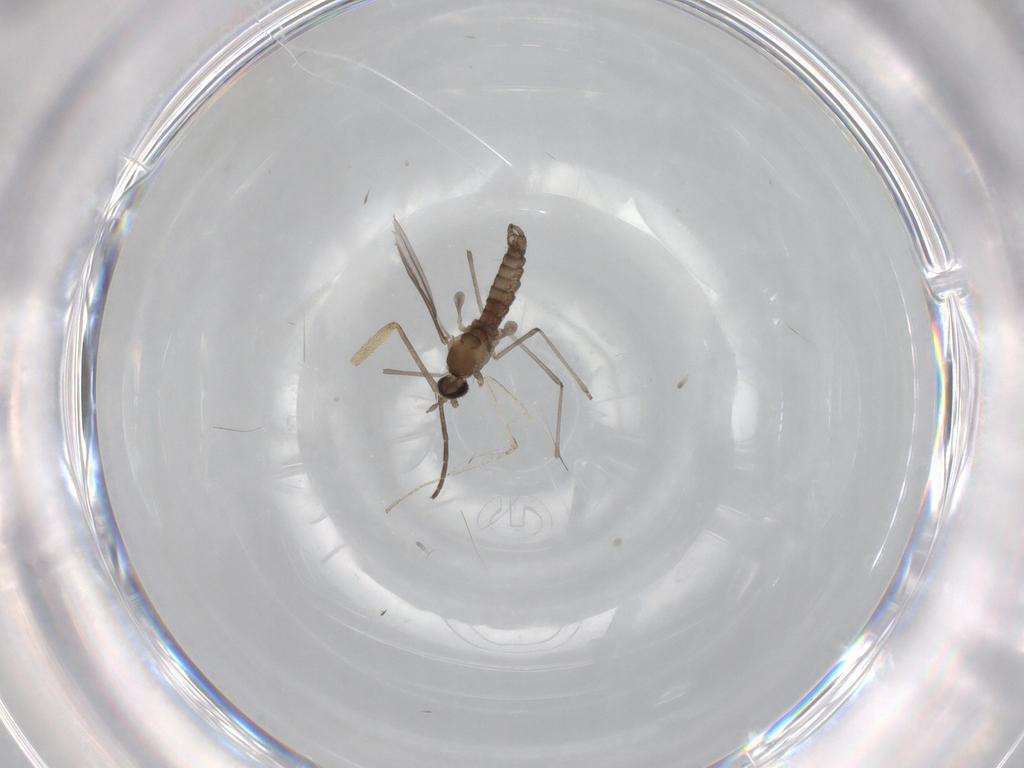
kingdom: Animalia
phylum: Arthropoda
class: Insecta
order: Diptera
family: Sciaridae
